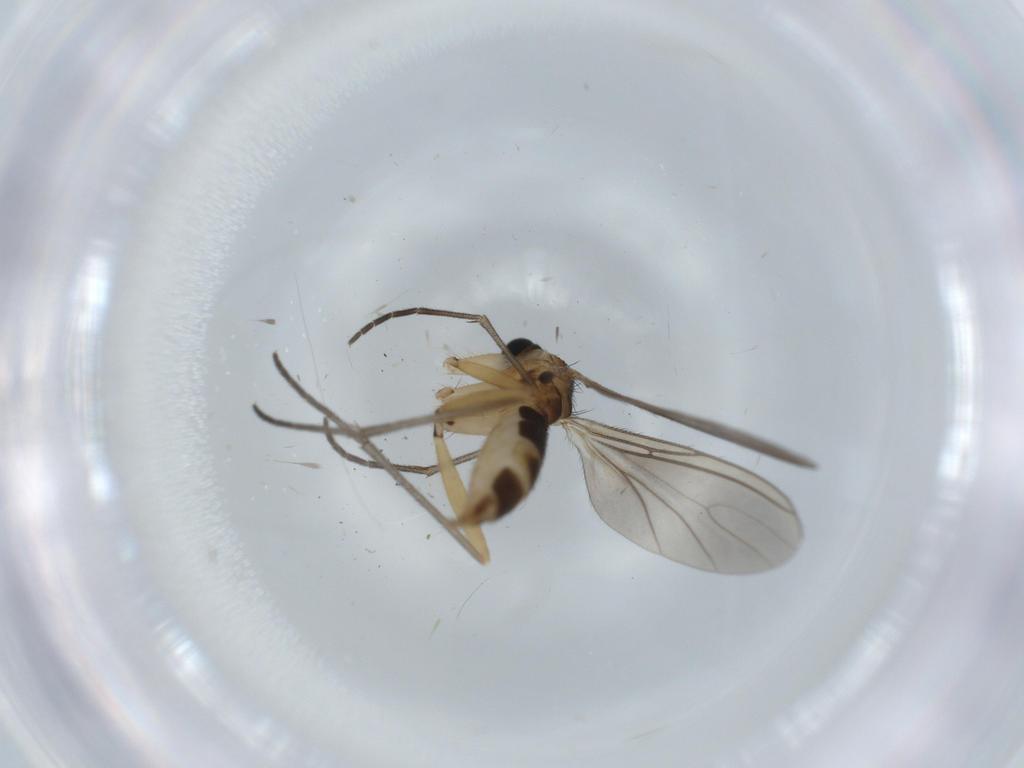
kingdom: Animalia
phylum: Arthropoda
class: Insecta
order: Diptera
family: Sciaridae
